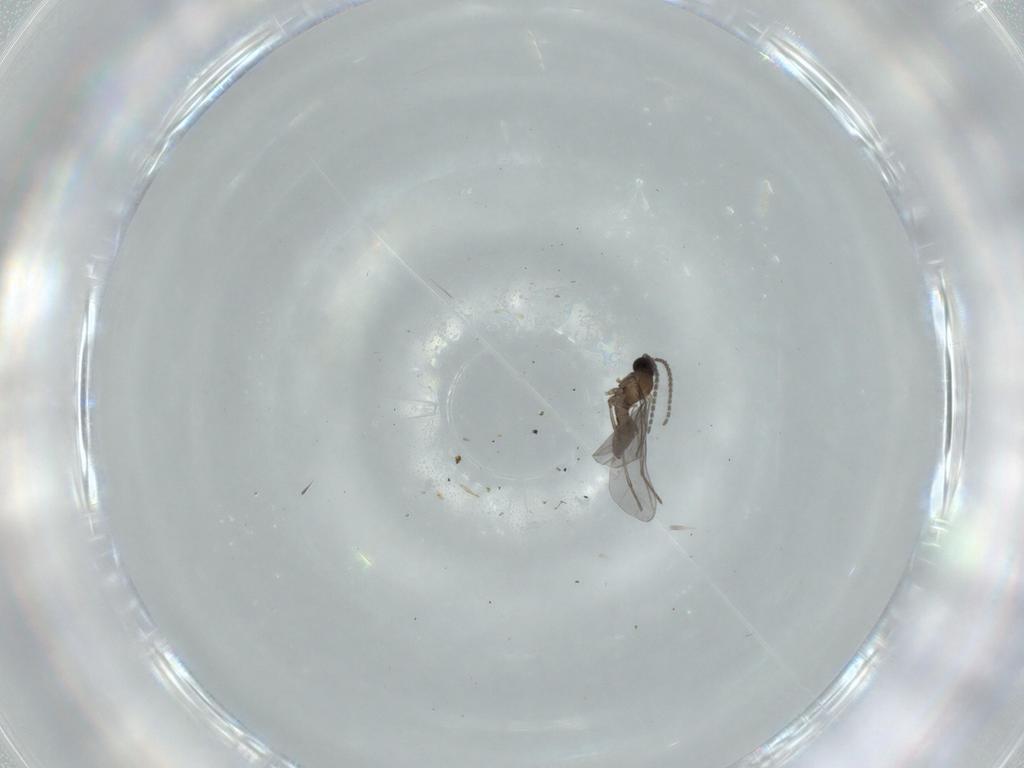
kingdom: Animalia
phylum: Arthropoda
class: Insecta
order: Diptera
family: Sciaridae
